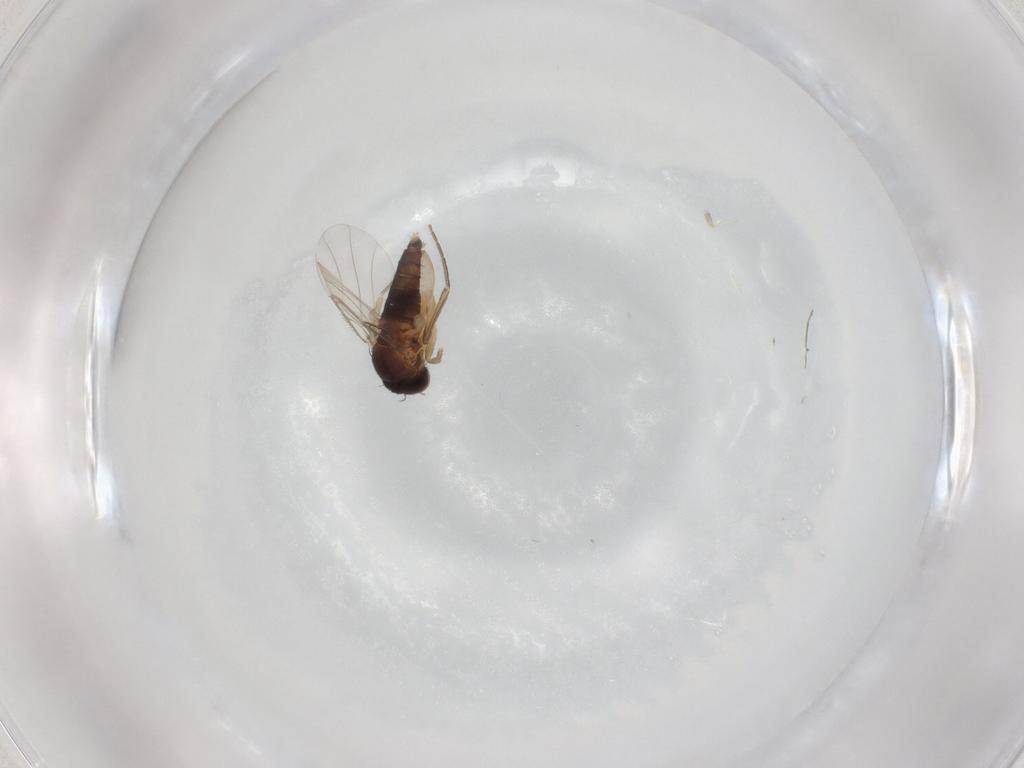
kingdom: Animalia
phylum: Arthropoda
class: Insecta
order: Diptera
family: Phoridae
